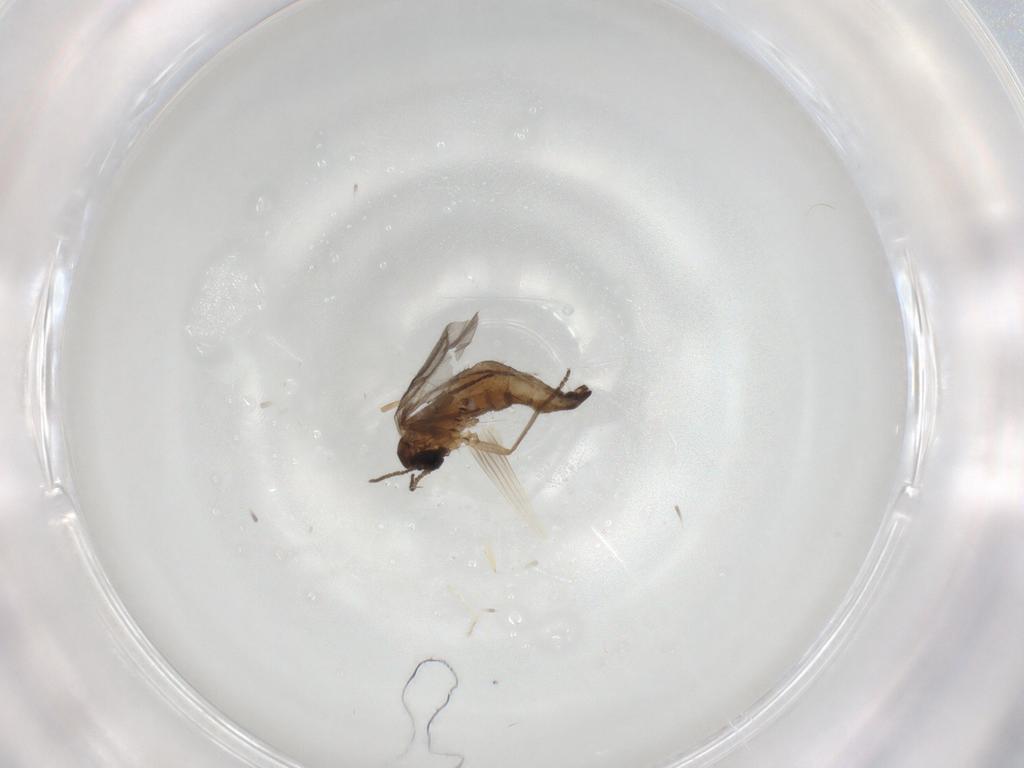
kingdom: Animalia
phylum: Arthropoda
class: Insecta
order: Diptera
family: Sciaridae
